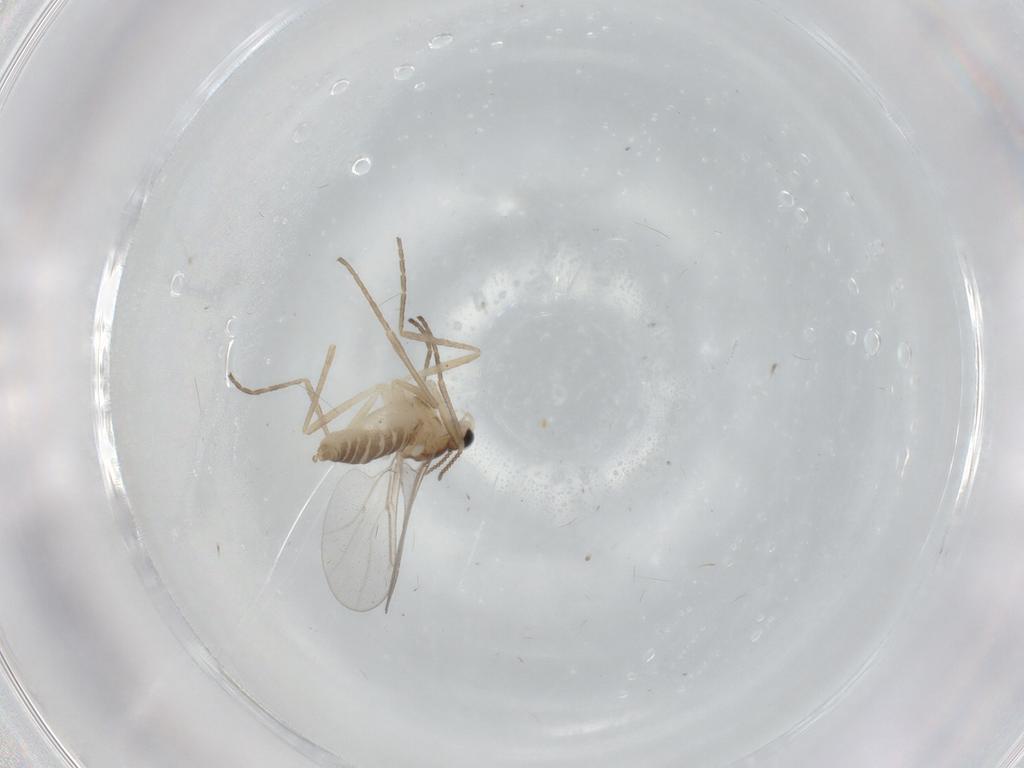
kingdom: Animalia
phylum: Arthropoda
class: Insecta
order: Diptera
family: Cecidomyiidae
